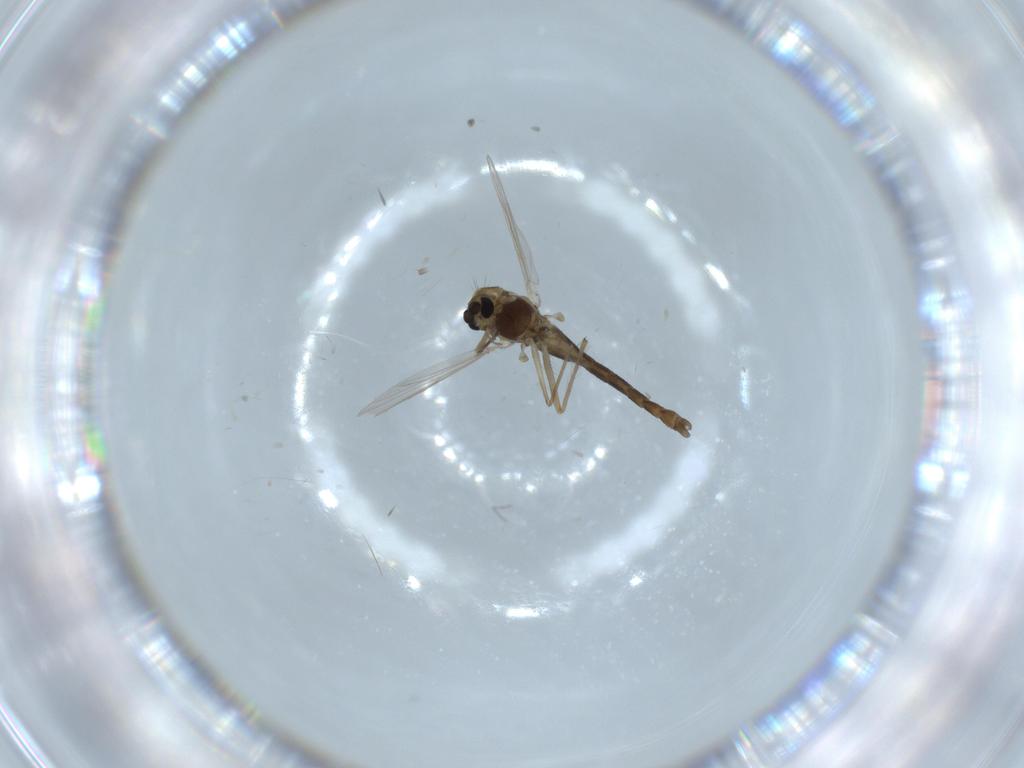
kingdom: Animalia
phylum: Arthropoda
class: Insecta
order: Diptera
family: Chironomidae
